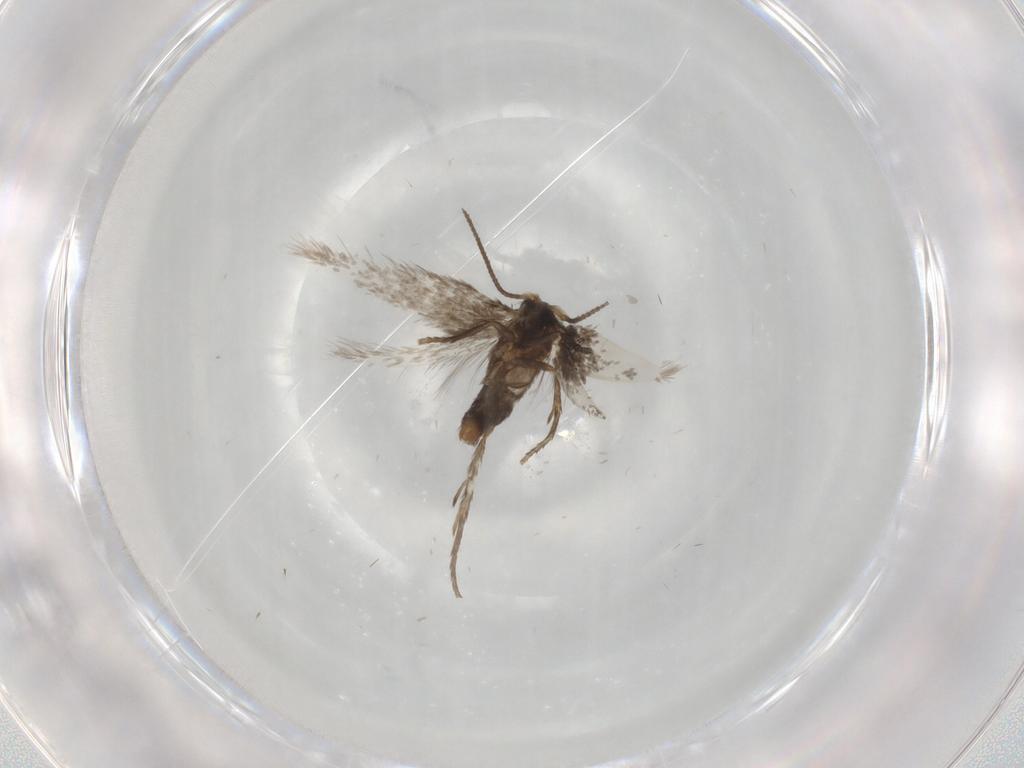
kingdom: Animalia
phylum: Arthropoda
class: Insecta
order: Lepidoptera
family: Nepticulidae
